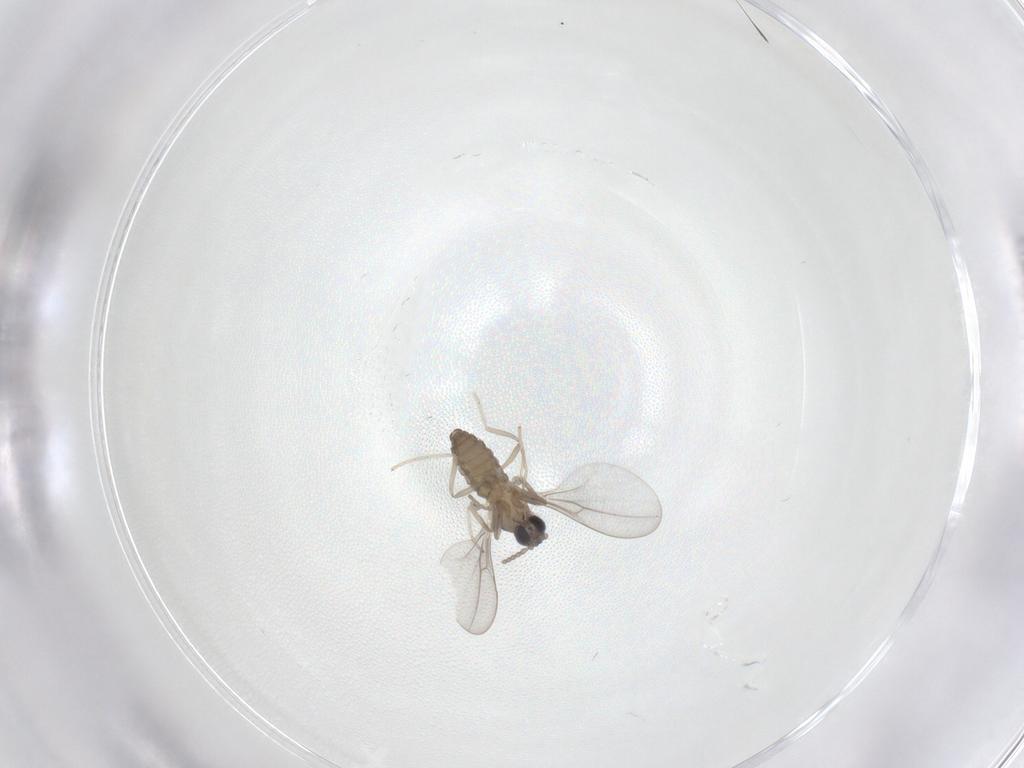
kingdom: Animalia
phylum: Arthropoda
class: Insecta
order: Diptera
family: Cecidomyiidae
